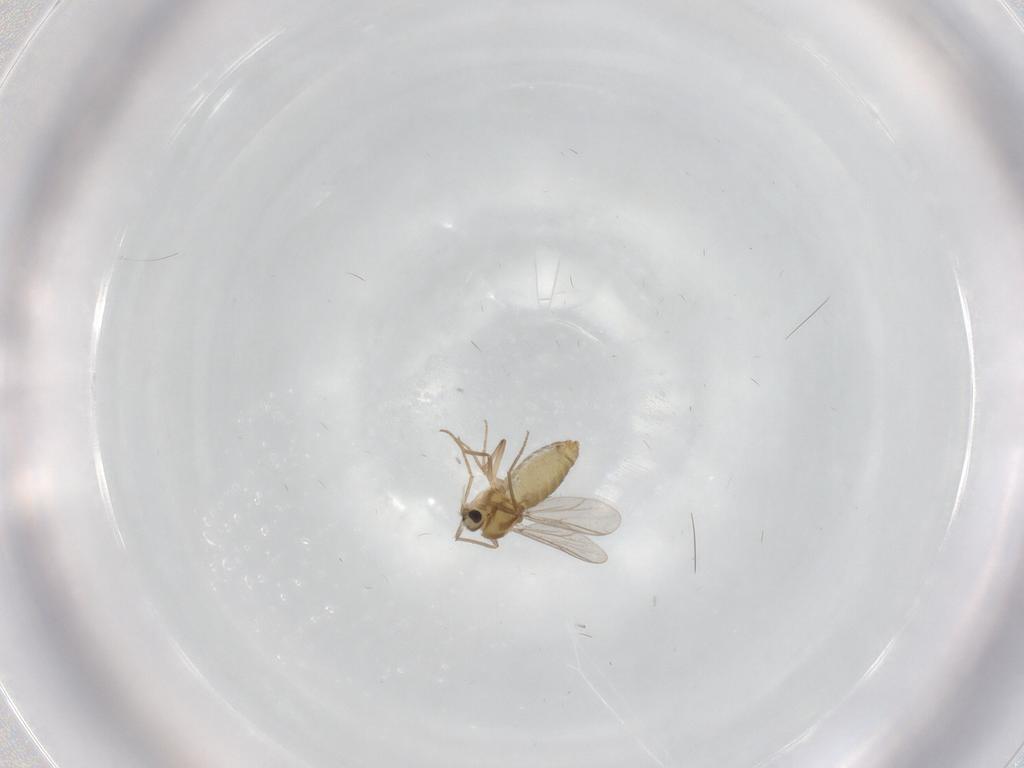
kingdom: Animalia
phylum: Arthropoda
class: Insecta
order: Diptera
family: Chironomidae
